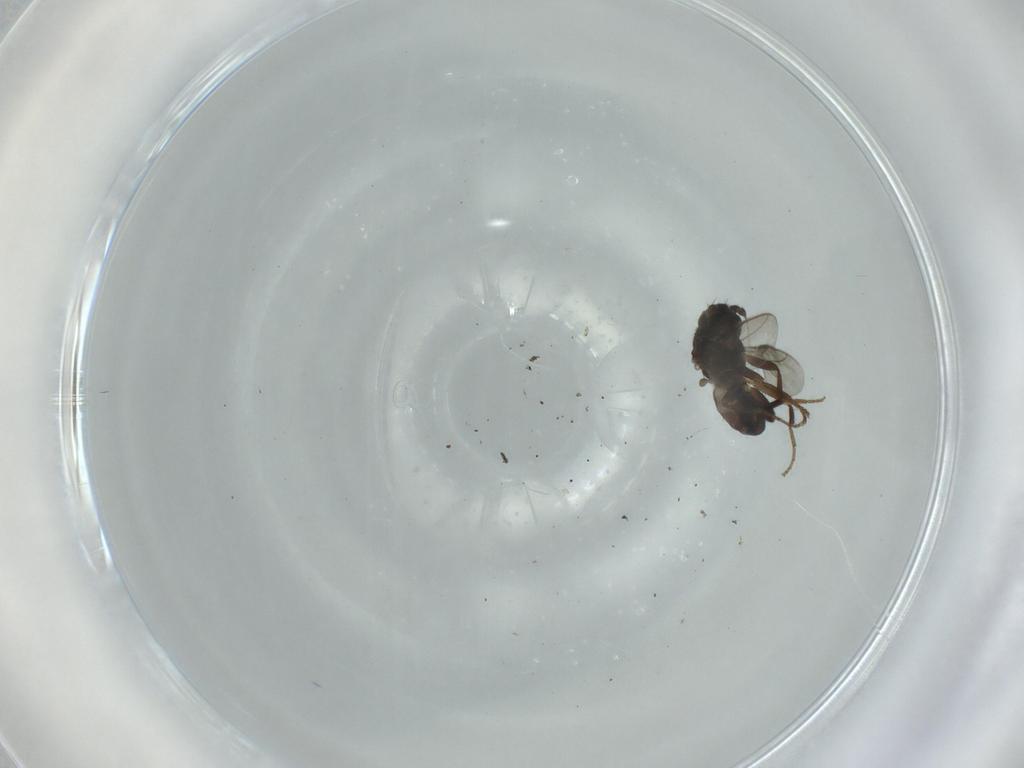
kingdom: Animalia
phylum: Arthropoda
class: Insecta
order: Diptera
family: Sphaeroceridae
